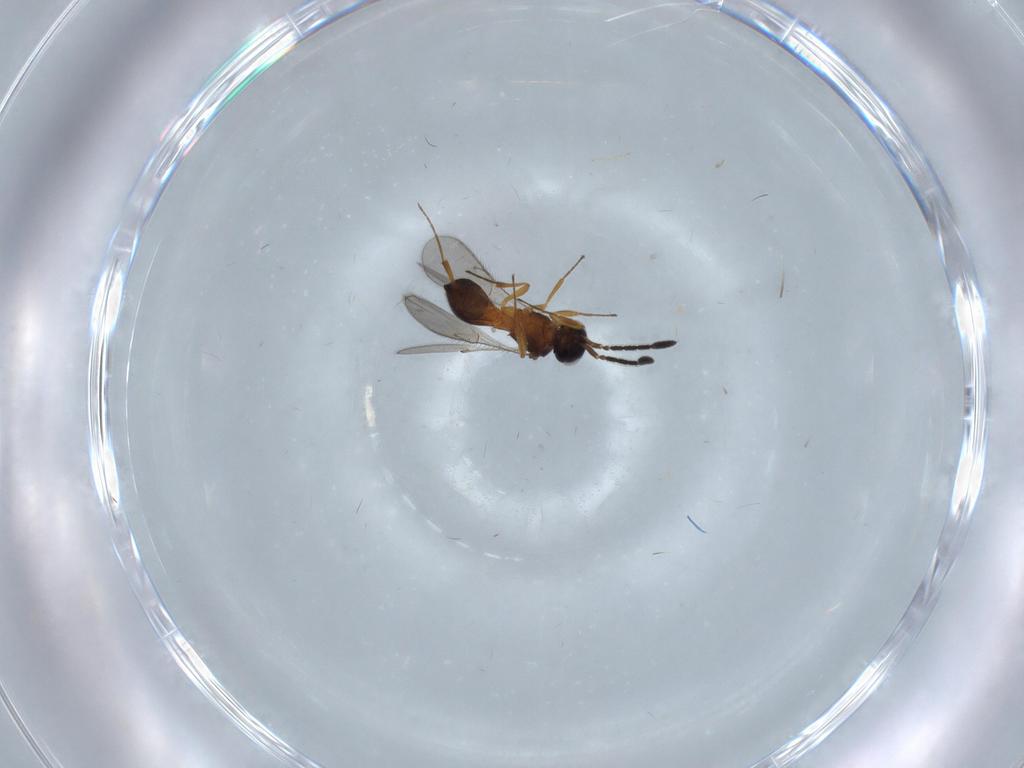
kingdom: Animalia
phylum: Arthropoda
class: Insecta
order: Hymenoptera
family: Scelionidae
